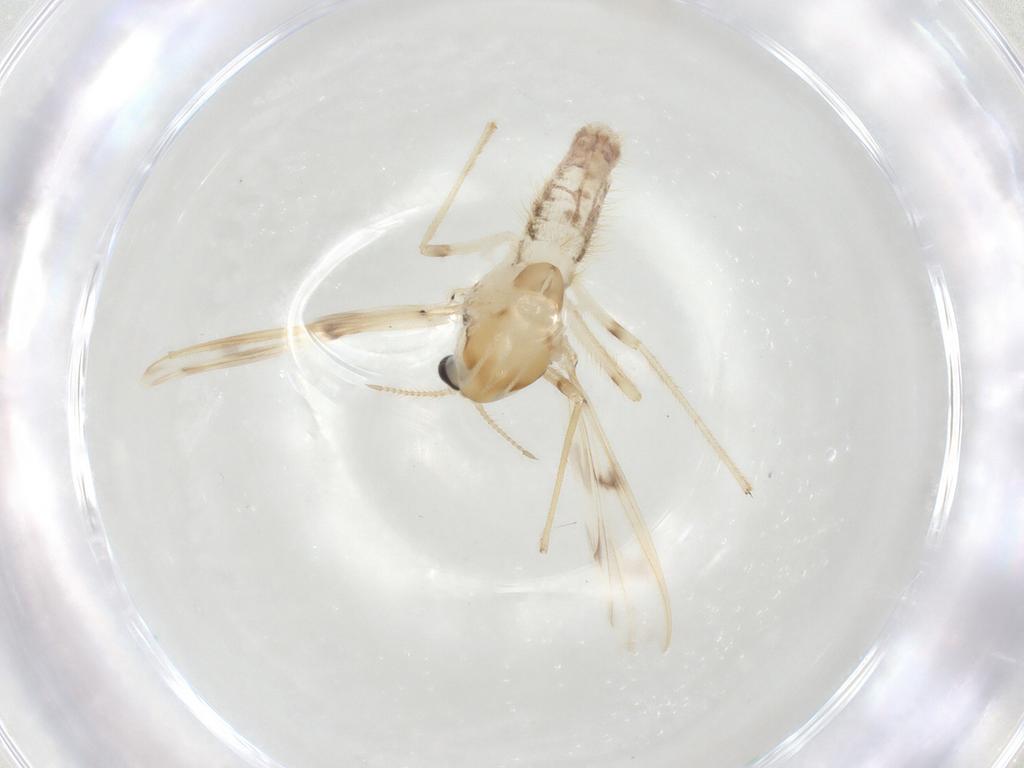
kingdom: Animalia
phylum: Arthropoda
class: Insecta
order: Diptera
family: Chironomidae
